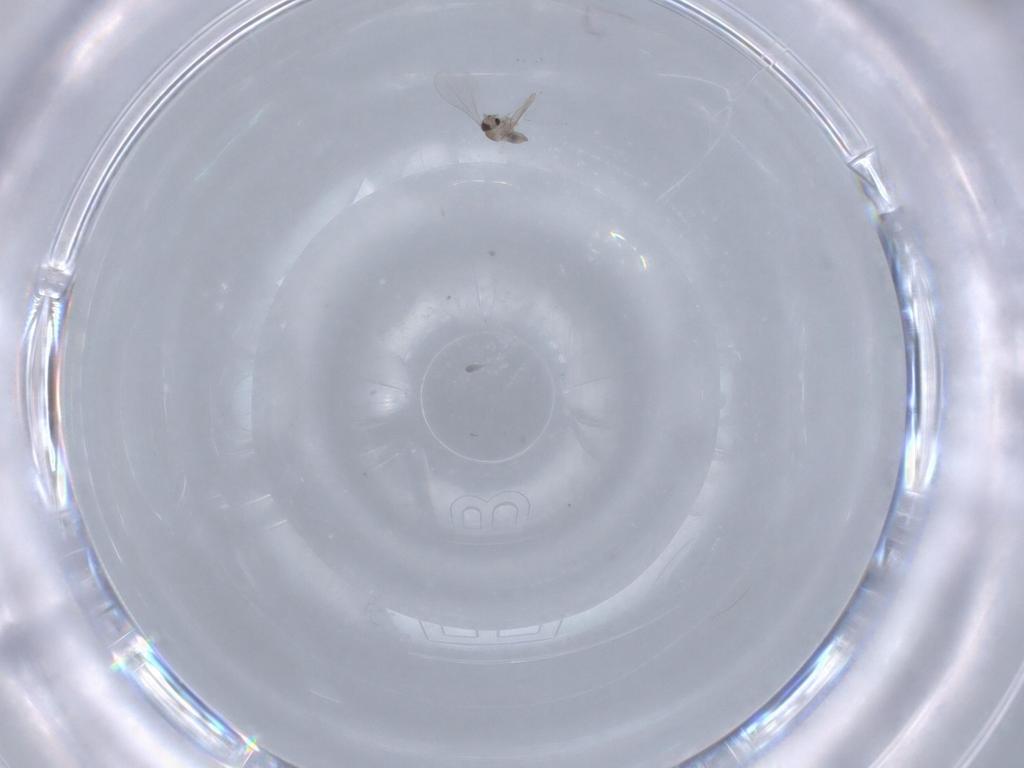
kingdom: Animalia
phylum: Arthropoda
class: Insecta
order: Diptera
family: Cecidomyiidae
